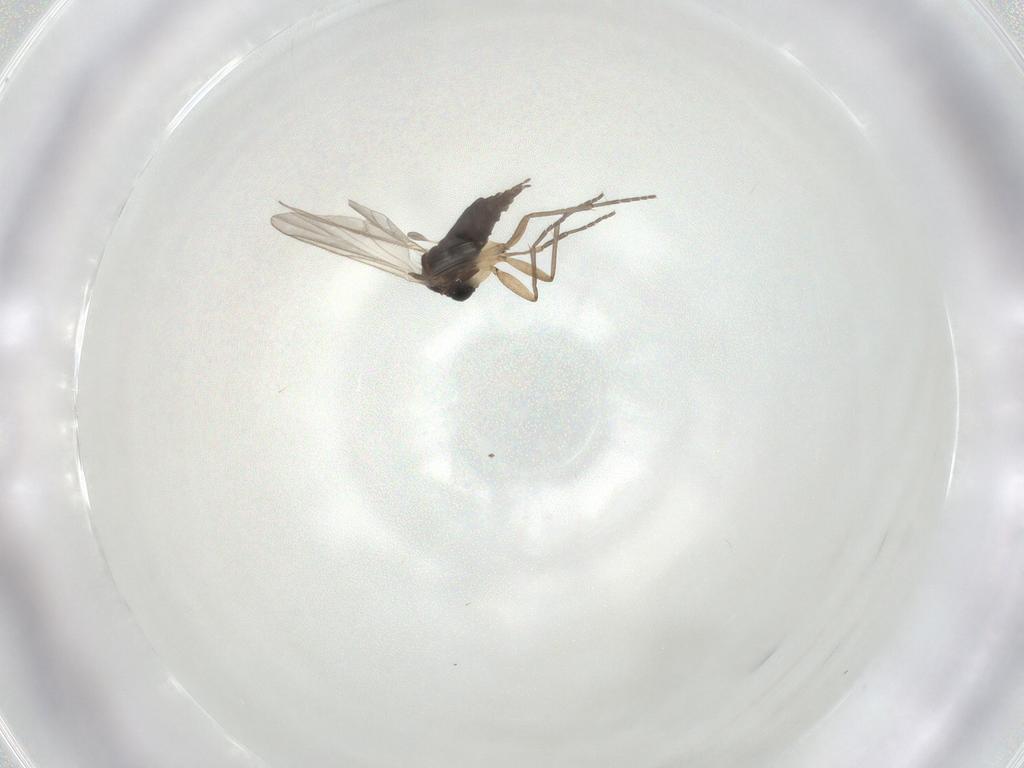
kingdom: Animalia
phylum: Arthropoda
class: Insecta
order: Diptera
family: Sciaridae
